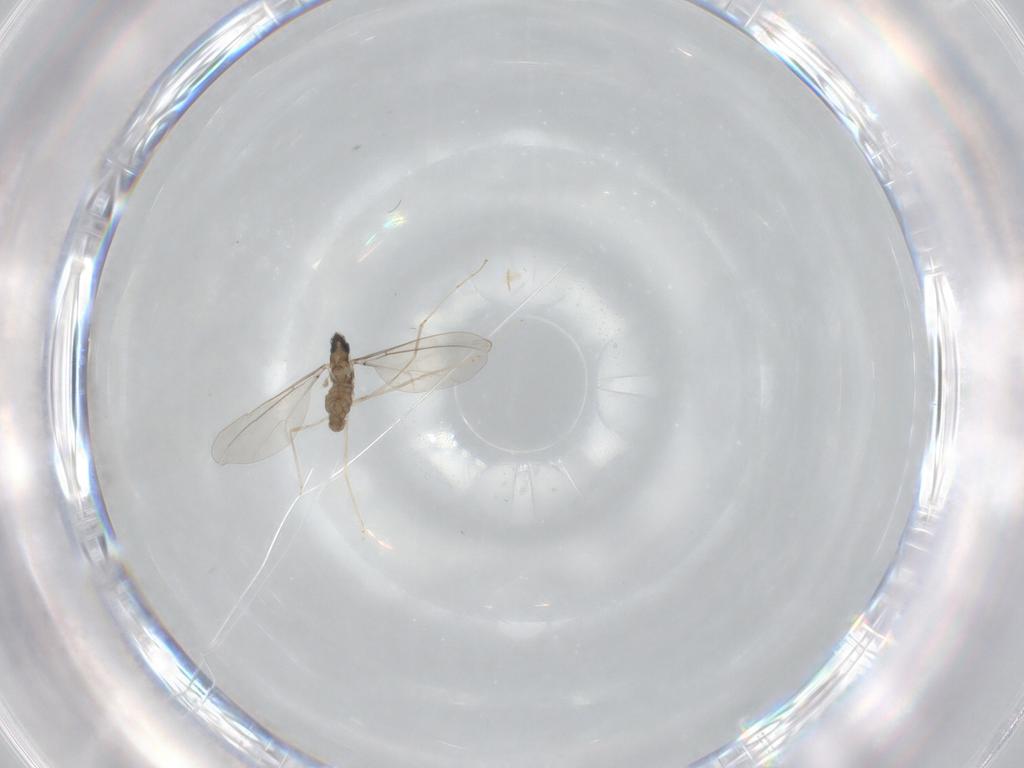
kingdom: Animalia
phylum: Arthropoda
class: Insecta
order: Diptera
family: Cecidomyiidae
